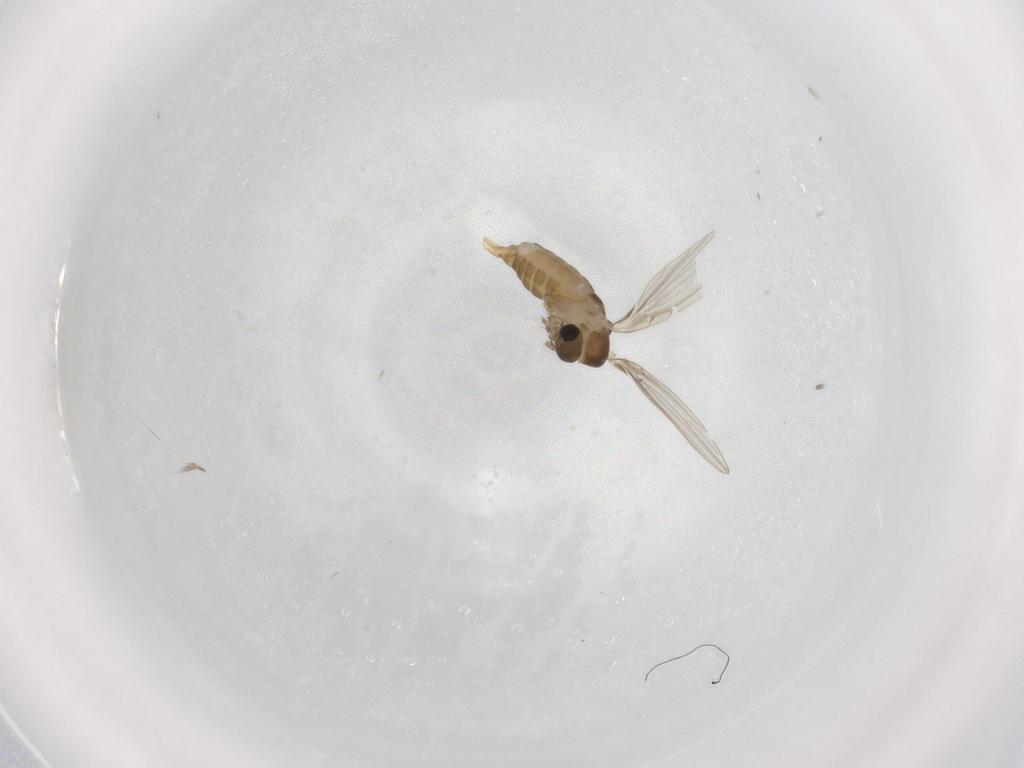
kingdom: Animalia
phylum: Arthropoda
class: Insecta
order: Diptera
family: Psychodidae
